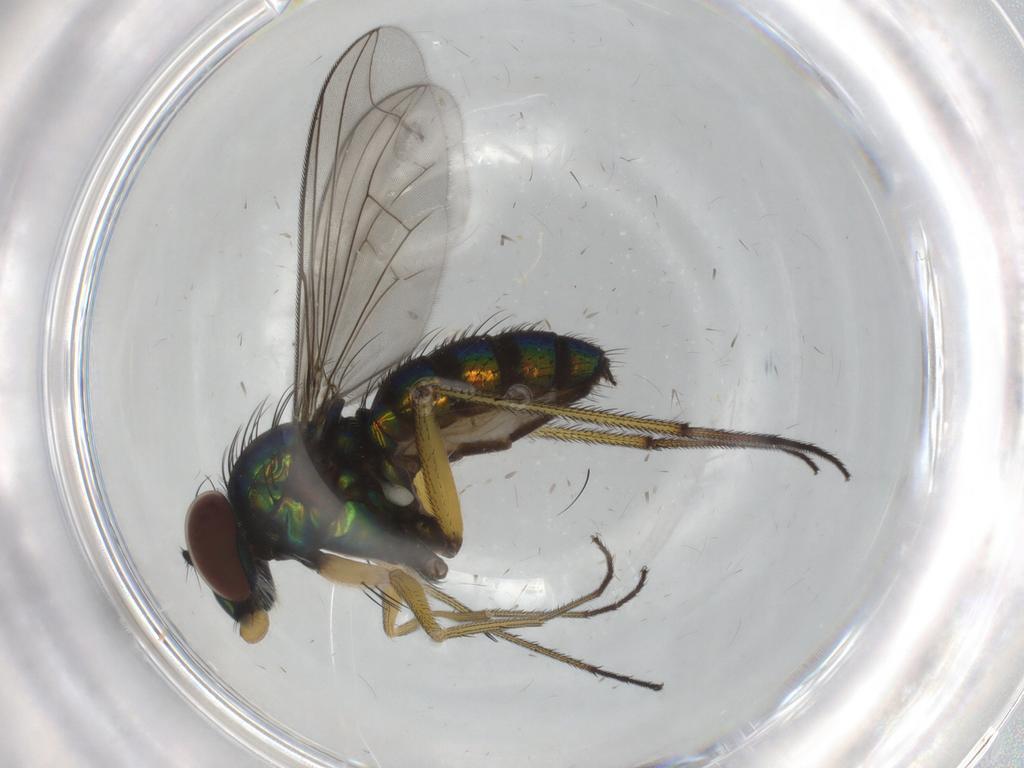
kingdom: Animalia
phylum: Arthropoda
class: Insecta
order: Diptera
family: Dolichopodidae
